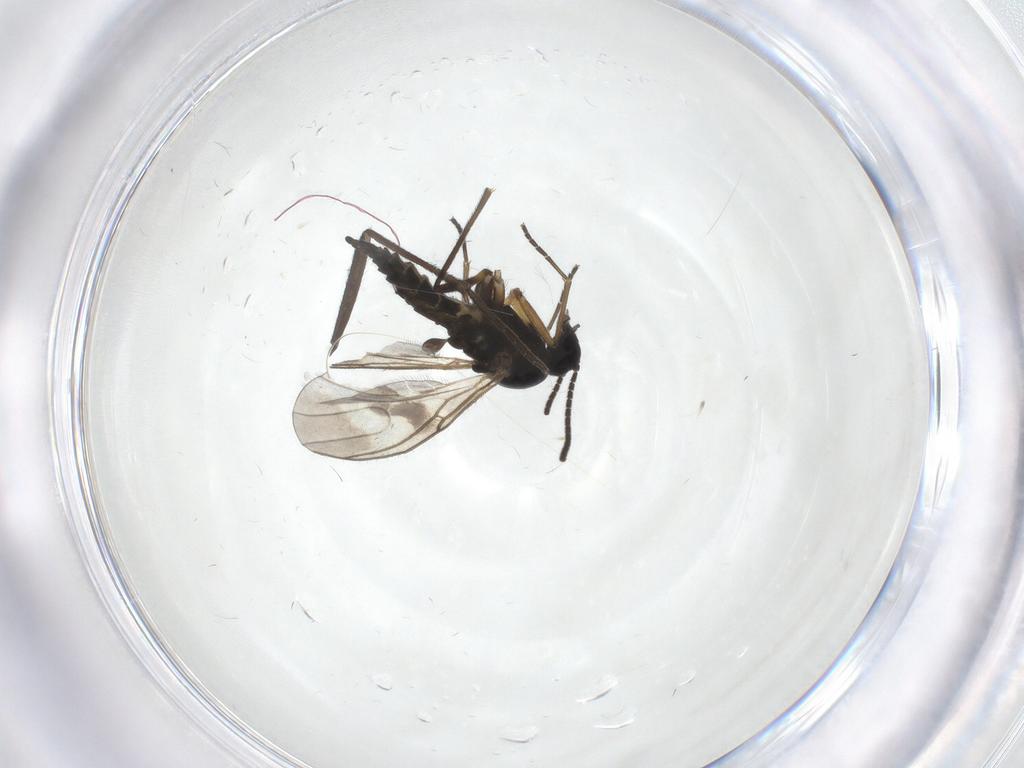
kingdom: Animalia
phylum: Arthropoda
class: Insecta
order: Diptera
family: Sciaridae
